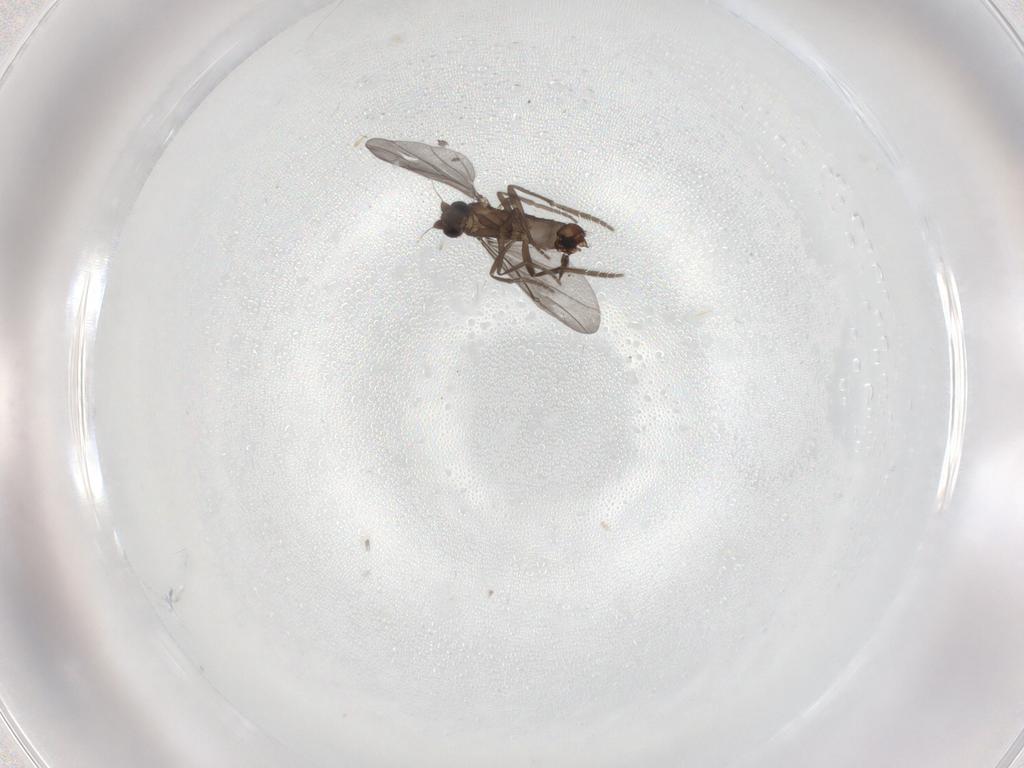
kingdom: Animalia
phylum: Arthropoda
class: Insecta
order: Diptera
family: Phoridae
